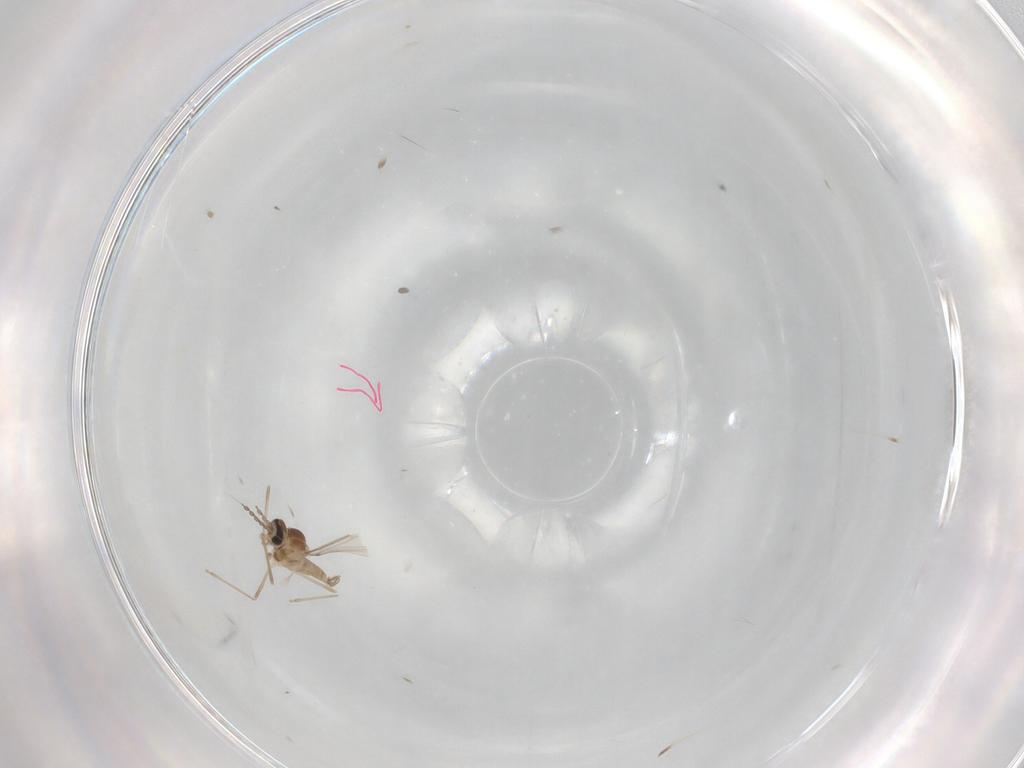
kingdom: Animalia
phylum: Arthropoda
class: Insecta
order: Diptera
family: Cecidomyiidae
